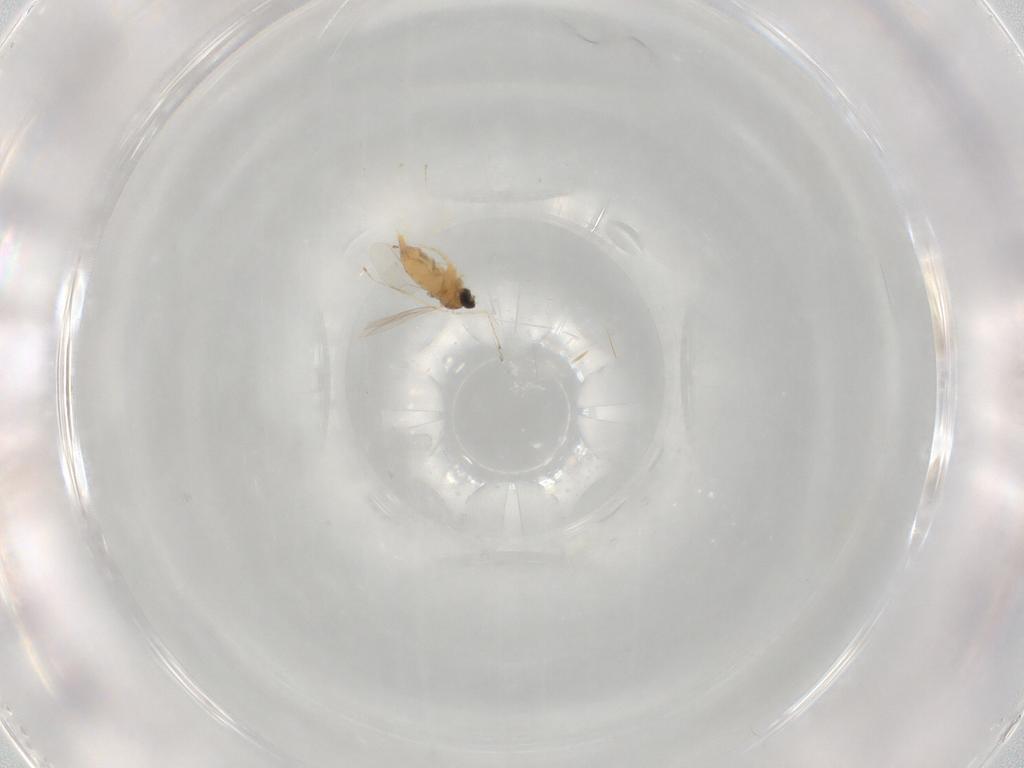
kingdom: Animalia
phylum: Arthropoda
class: Insecta
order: Diptera
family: Cecidomyiidae
